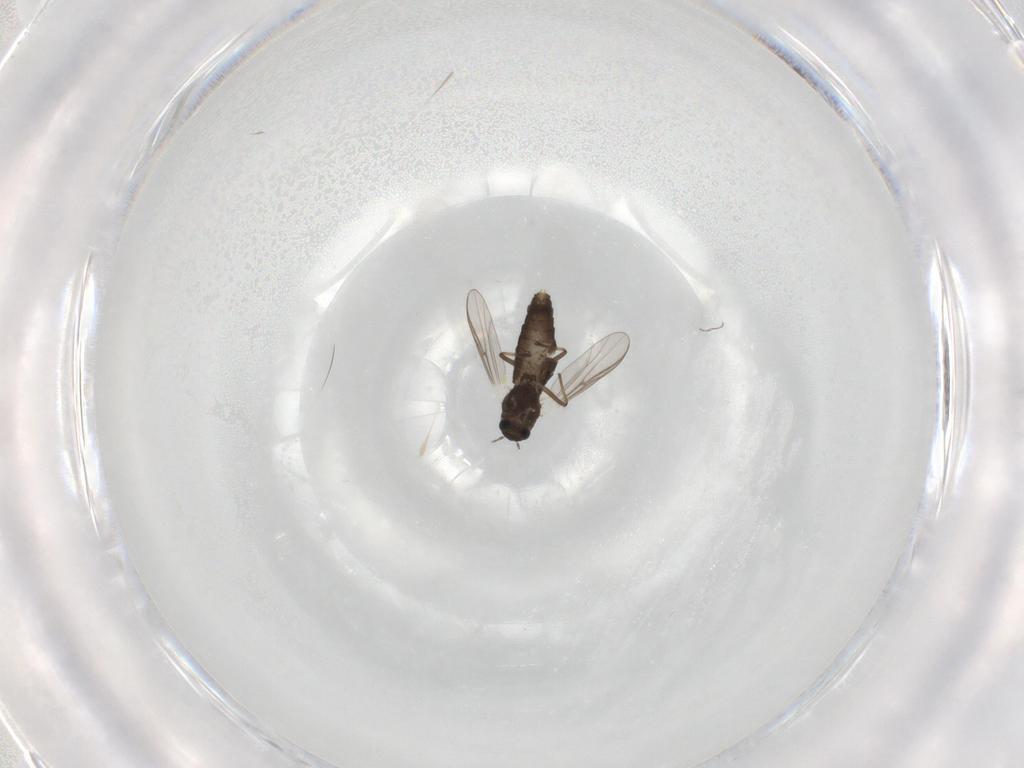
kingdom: Animalia
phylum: Arthropoda
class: Insecta
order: Diptera
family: Chironomidae
